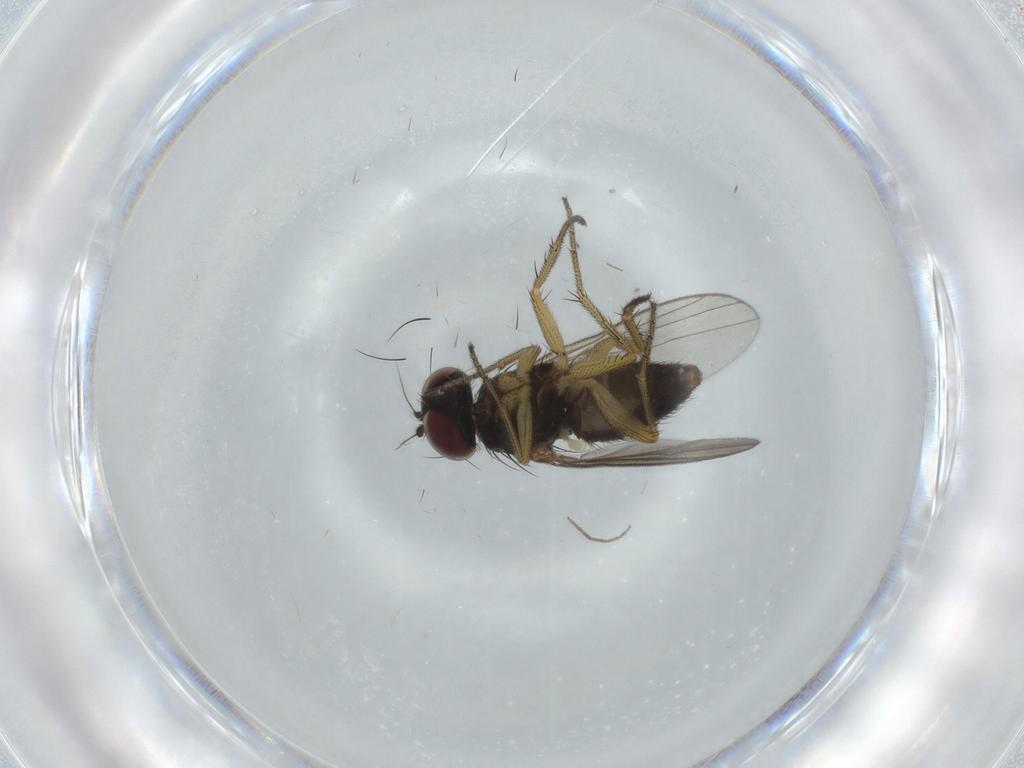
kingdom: Animalia
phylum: Arthropoda
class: Insecta
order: Diptera
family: Dolichopodidae
